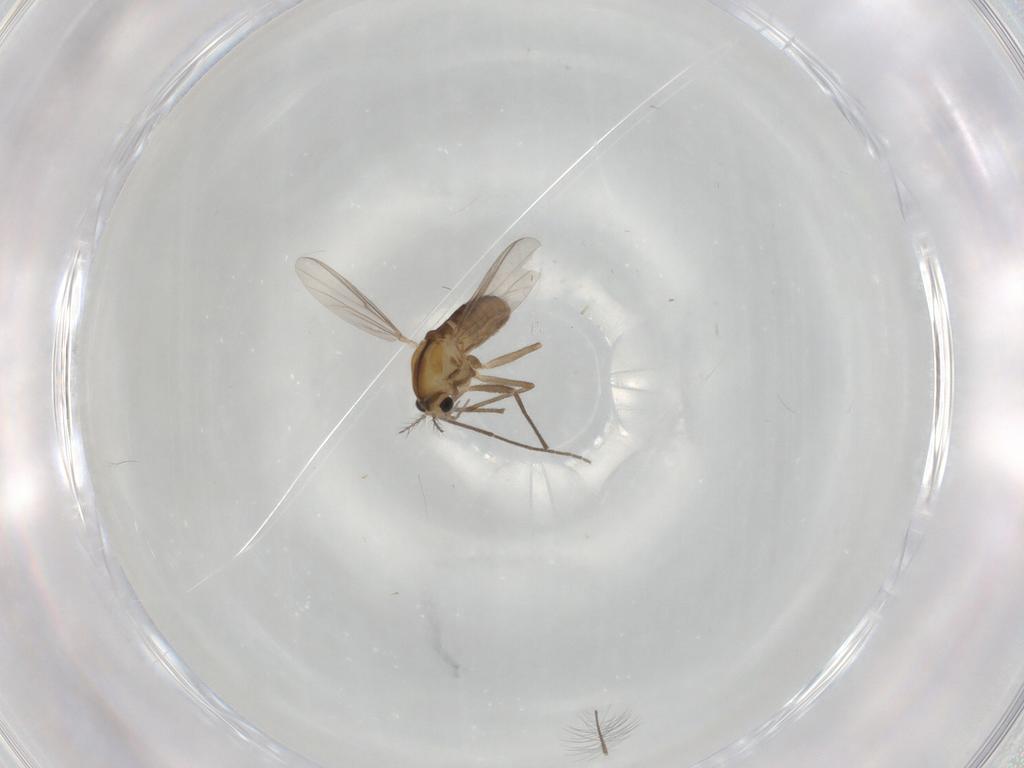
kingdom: Animalia
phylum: Arthropoda
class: Insecta
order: Diptera
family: Chironomidae
